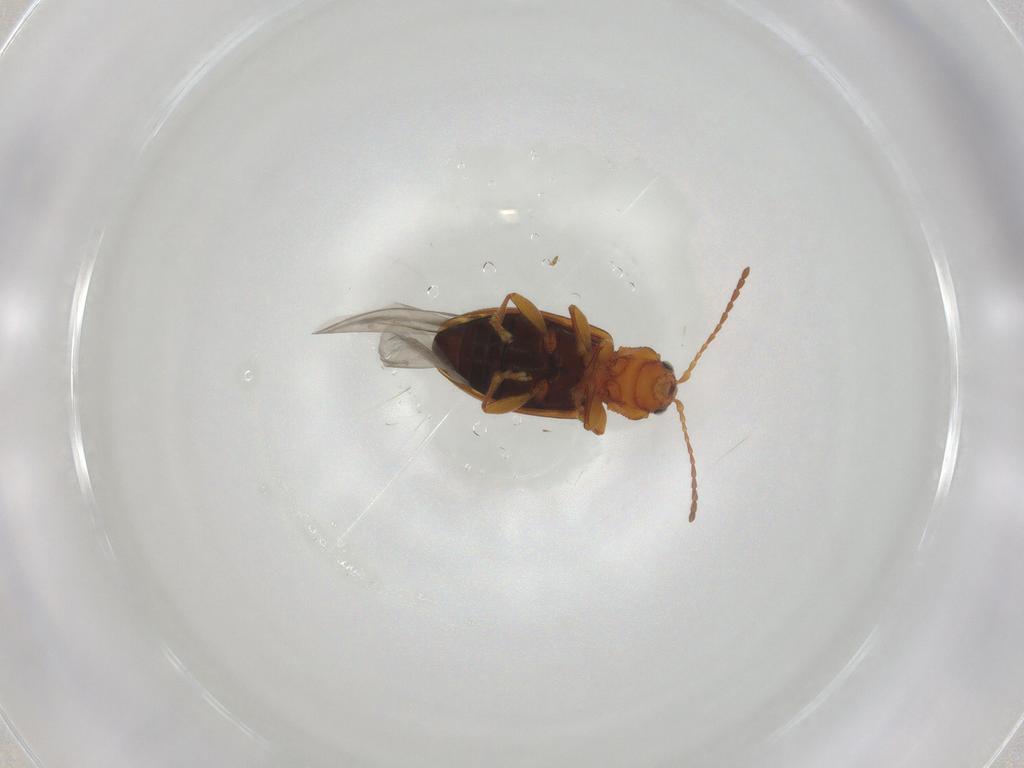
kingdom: Animalia
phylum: Arthropoda
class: Insecta
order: Coleoptera
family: Chrysomelidae
